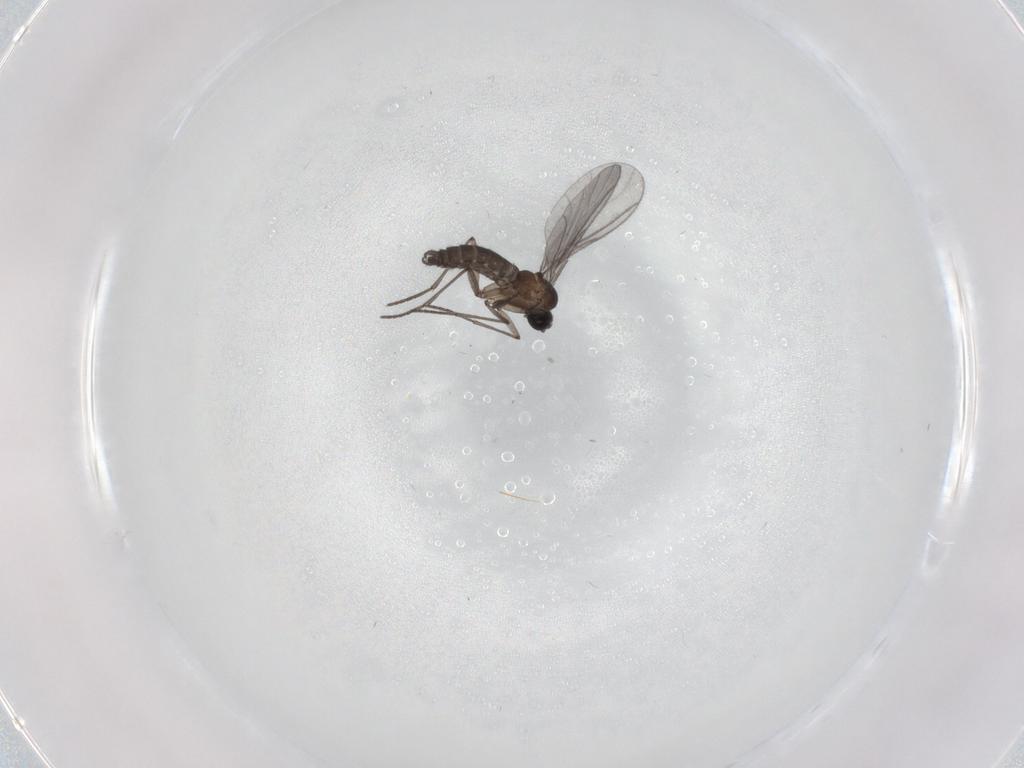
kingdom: Animalia
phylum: Arthropoda
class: Insecta
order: Diptera
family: Sciaridae
